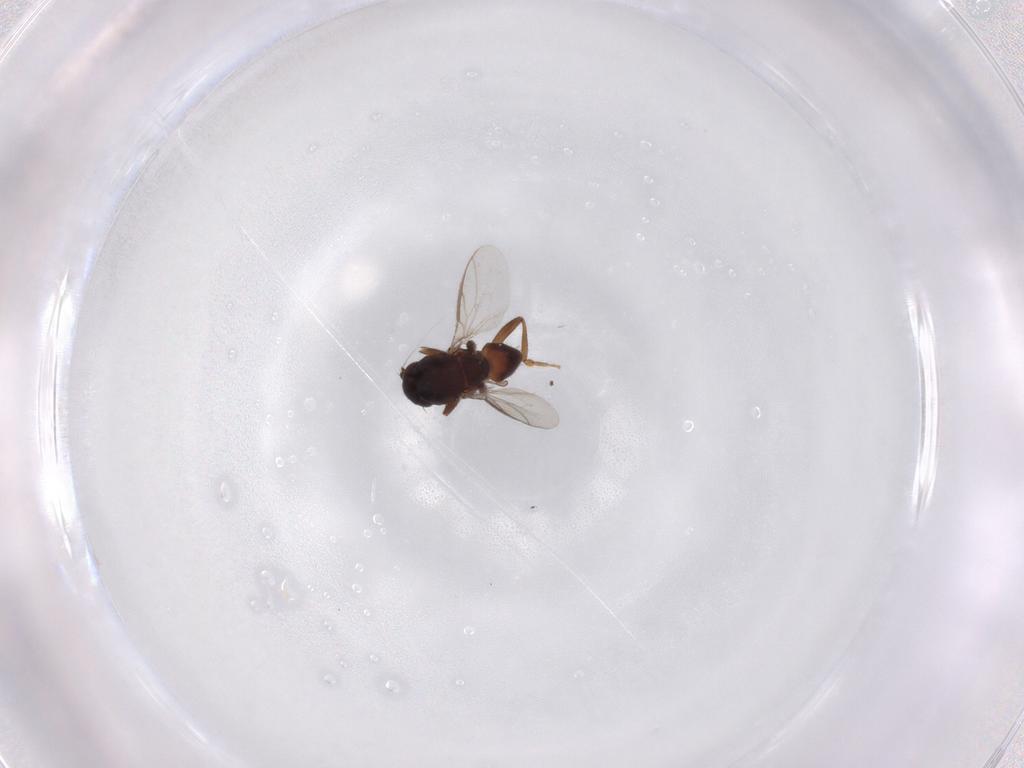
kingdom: Animalia
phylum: Arthropoda
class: Insecta
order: Diptera
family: Sphaeroceridae
